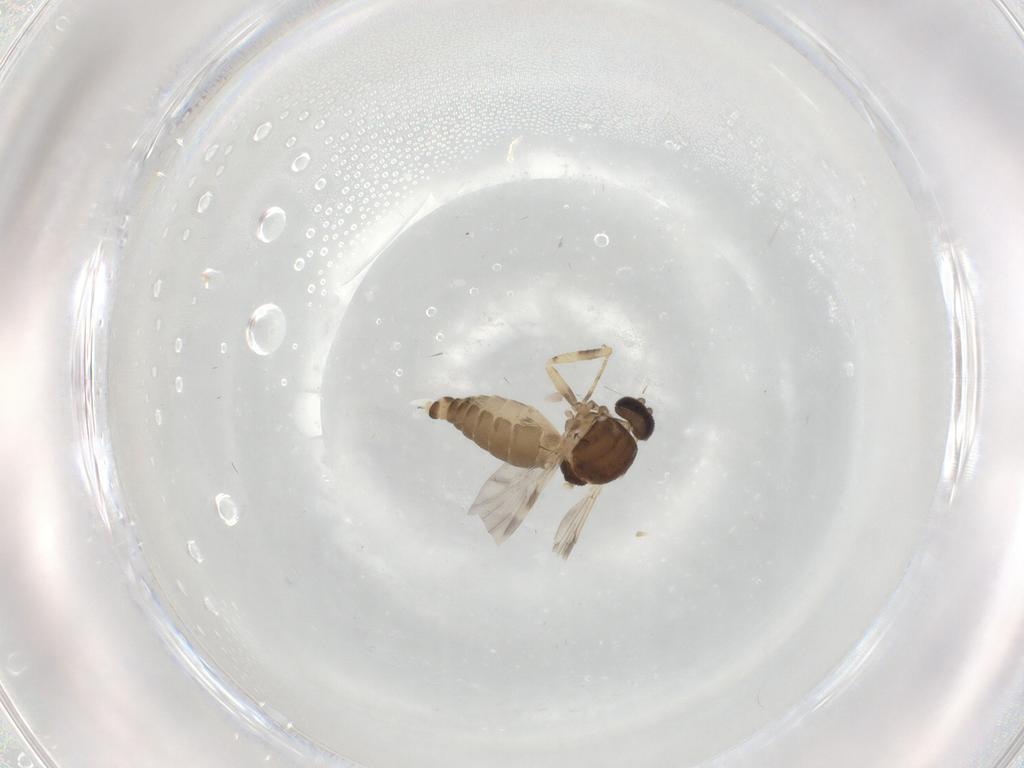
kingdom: Animalia
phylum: Arthropoda
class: Insecta
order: Diptera
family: Ceratopogonidae
